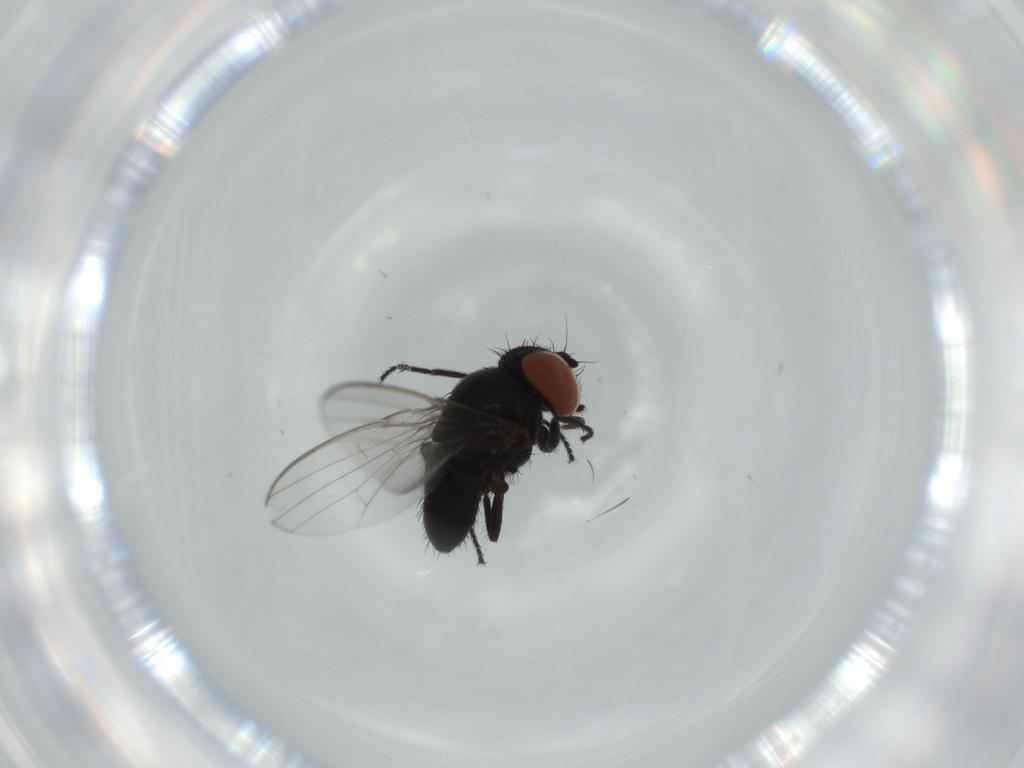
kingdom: Animalia
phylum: Arthropoda
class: Insecta
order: Diptera
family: Milichiidae
